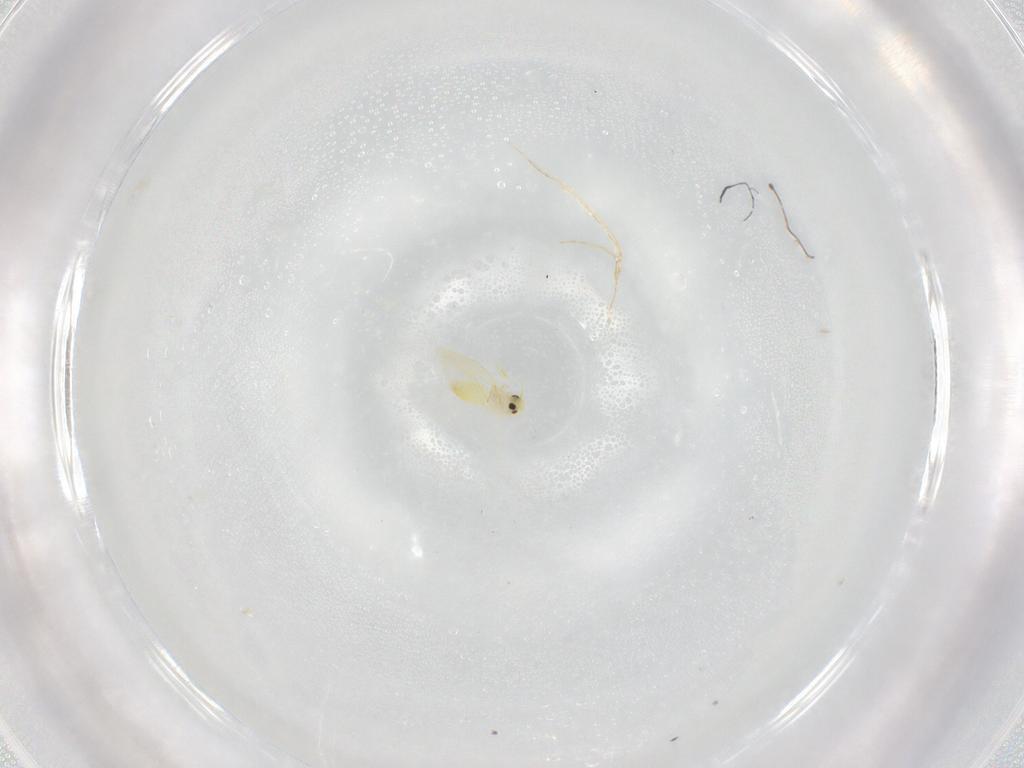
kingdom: Animalia
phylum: Arthropoda
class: Insecta
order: Hemiptera
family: Aleyrodidae
